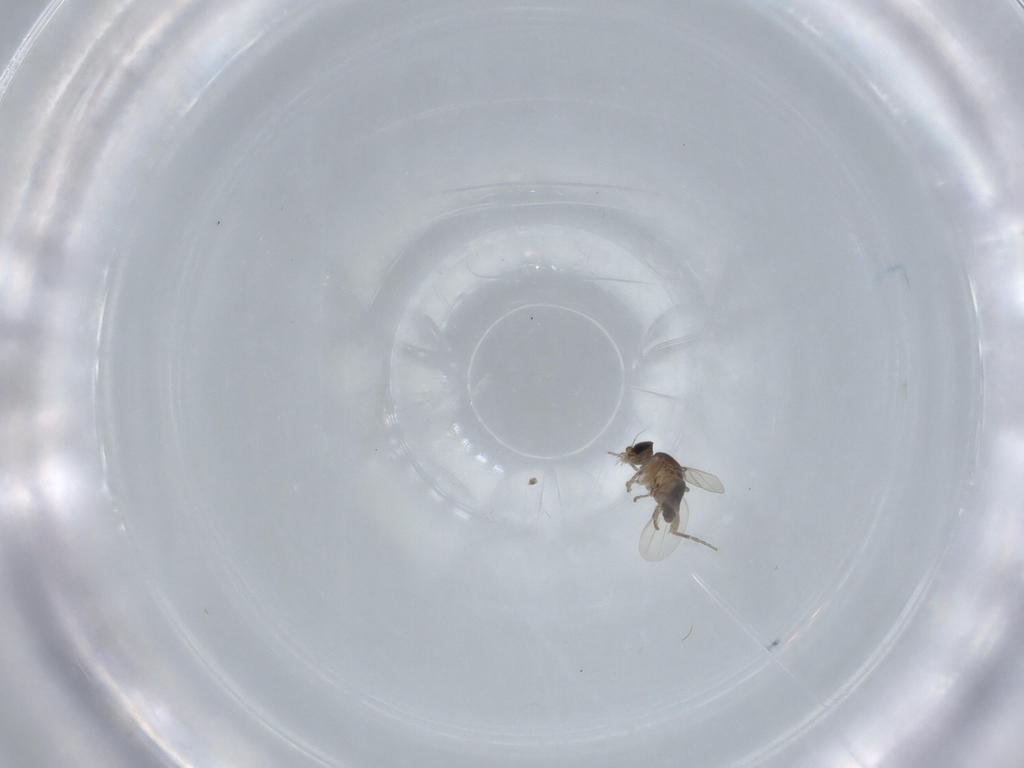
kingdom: Animalia
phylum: Arthropoda
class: Insecta
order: Diptera
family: Phoridae
